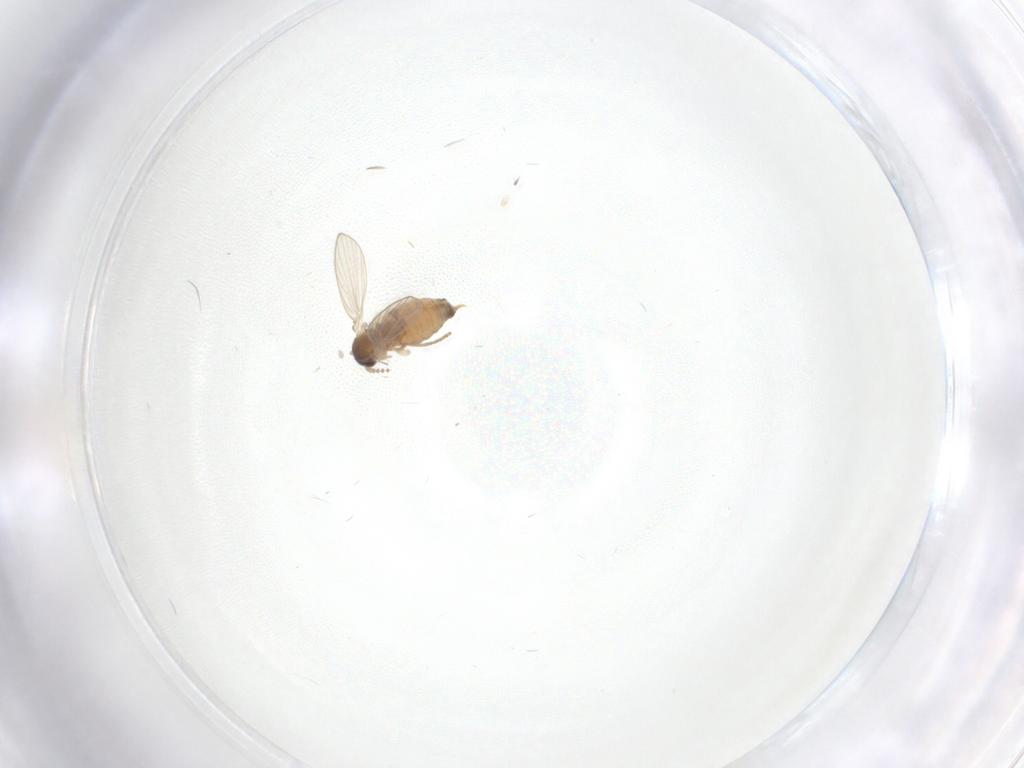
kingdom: Animalia
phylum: Arthropoda
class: Insecta
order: Diptera
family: Psychodidae
